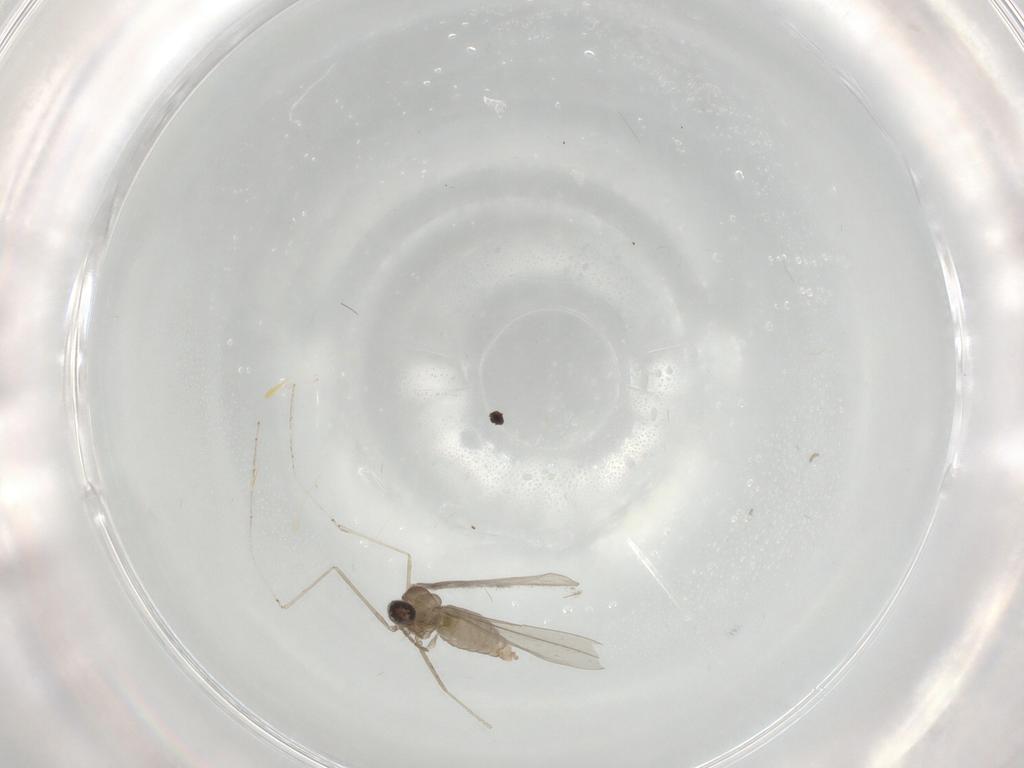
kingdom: Animalia
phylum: Arthropoda
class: Insecta
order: Diptera
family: Cecidomyiidae
